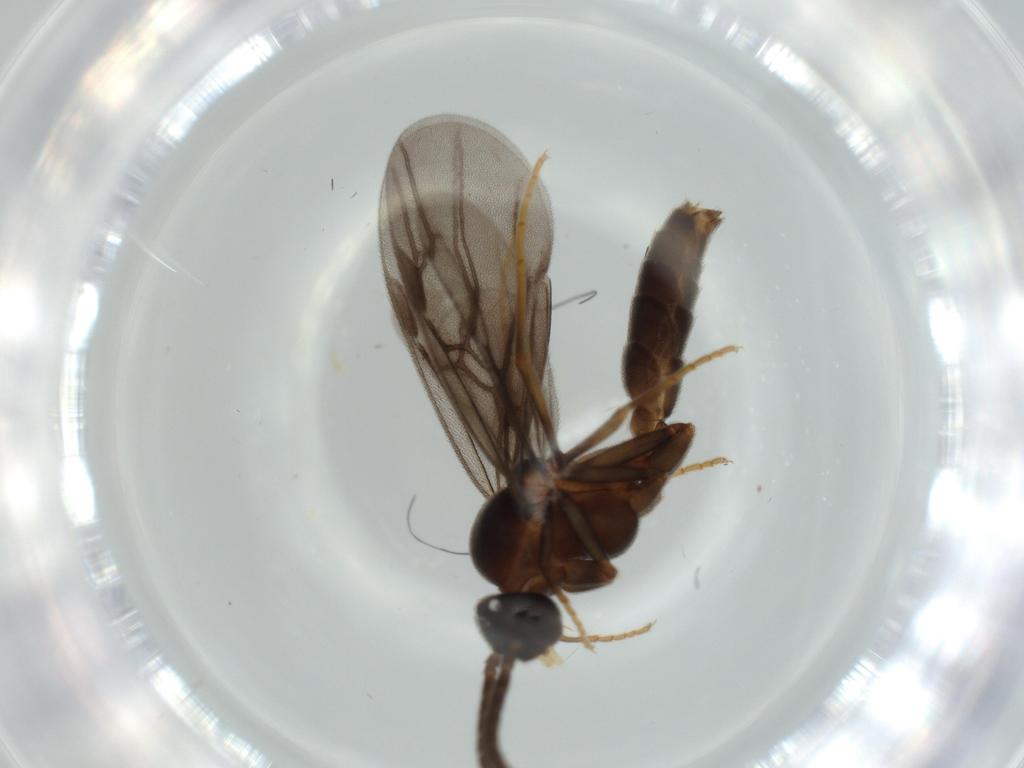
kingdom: Animalia
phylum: Arthropoda
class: Insecta
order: Hymenoptera
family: Formicidae
